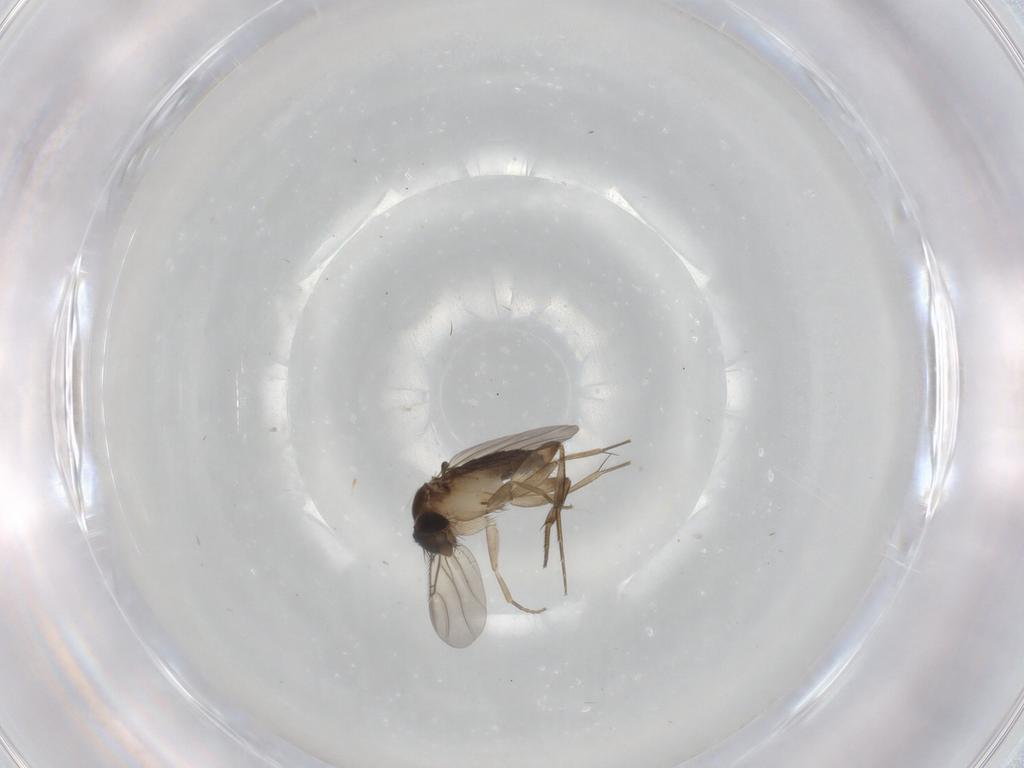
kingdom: Animalia
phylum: Arthropoda
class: Insecta
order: Diptera
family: Phoridae
